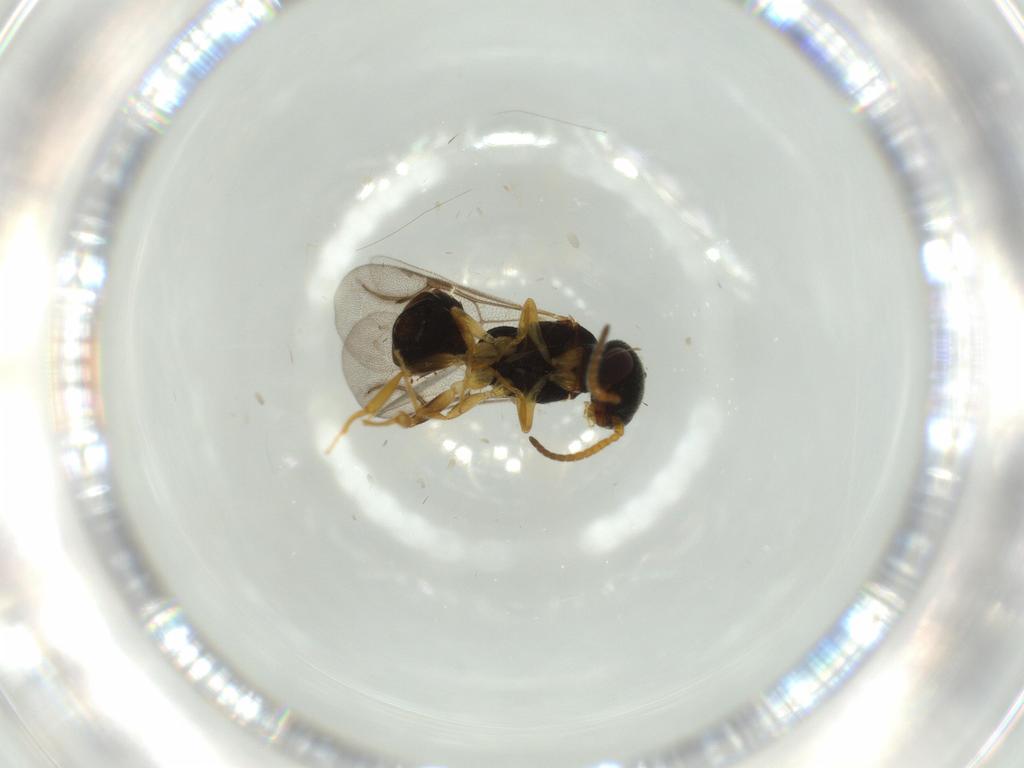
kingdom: Animalia
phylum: Arthropoda
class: Insecta
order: Hymenoptera
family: Bethylidae
